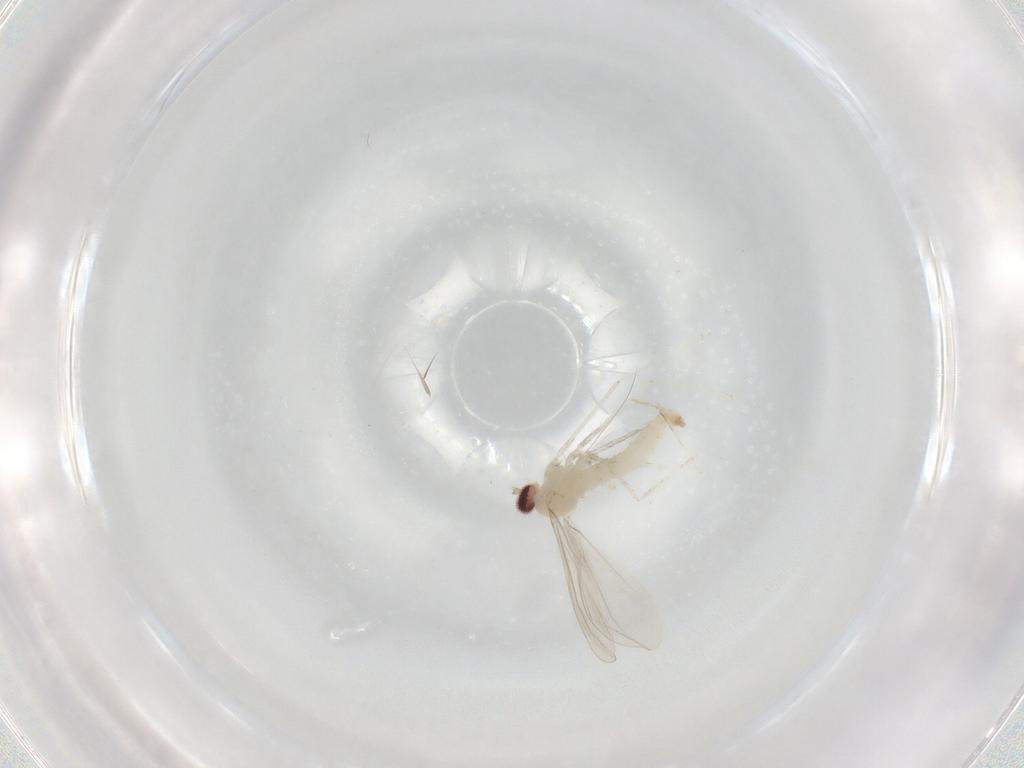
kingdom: Animalia
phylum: Arthropoda
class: Insecta
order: Diptera
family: Cecidomyiidae
